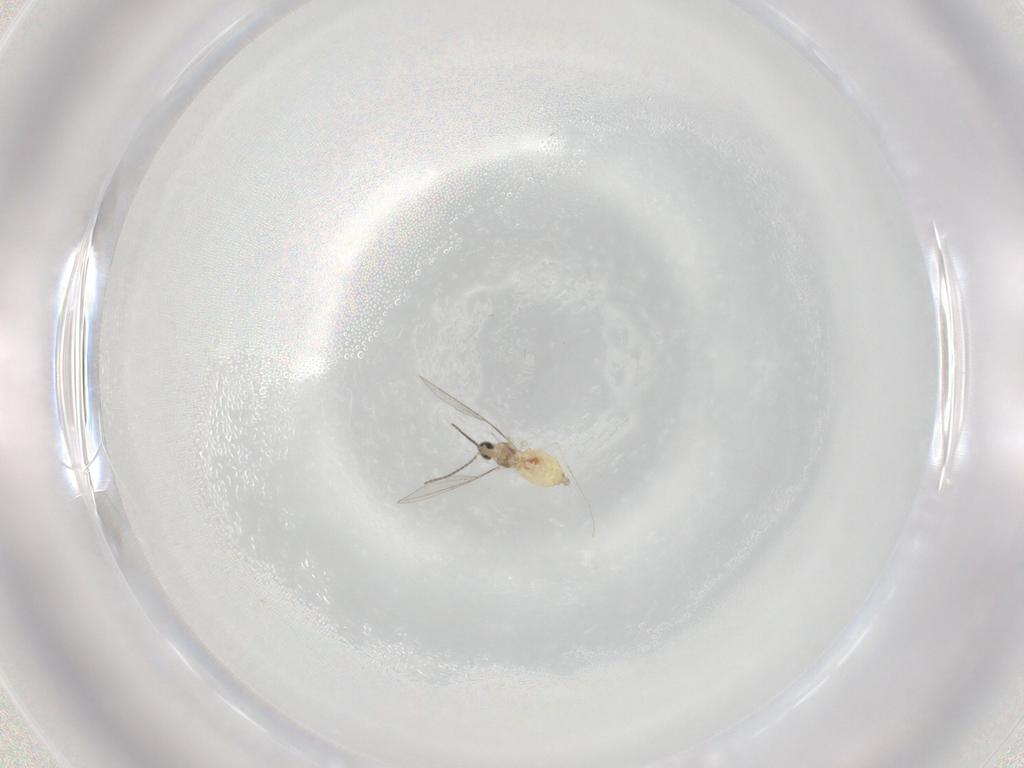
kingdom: Animalia
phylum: Arthropoda
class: Insecta
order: Diptera
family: Cecidomyiidae
